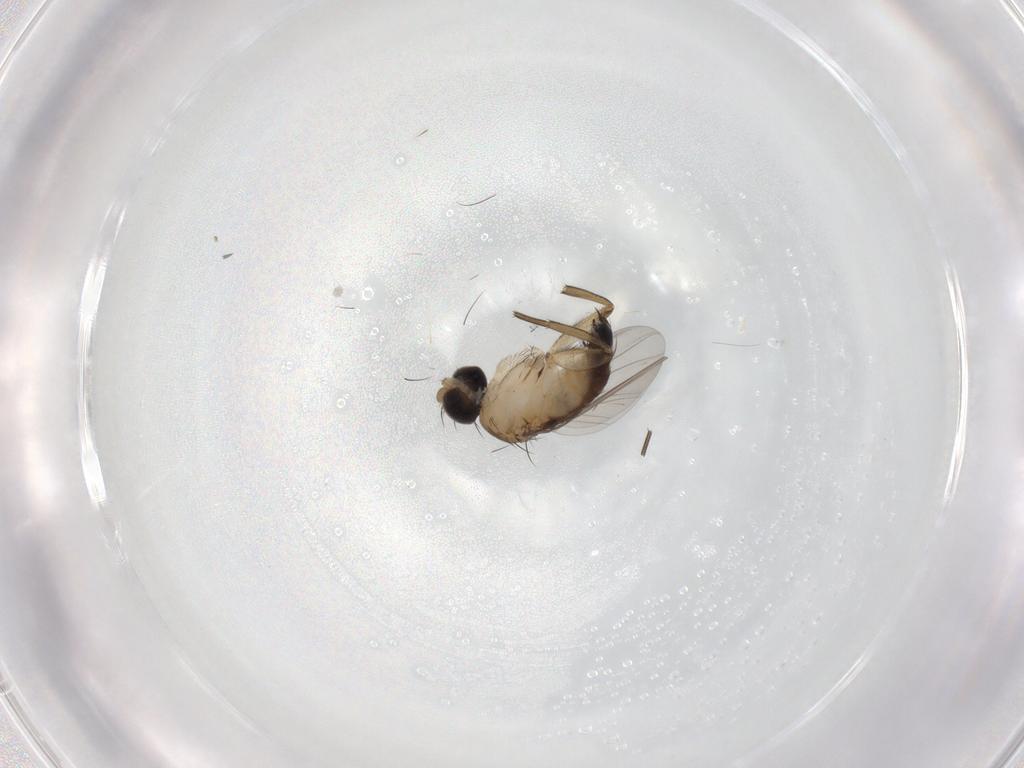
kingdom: Animalia
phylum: Arthropoda
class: Insecta
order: Diptera
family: Phoridae
